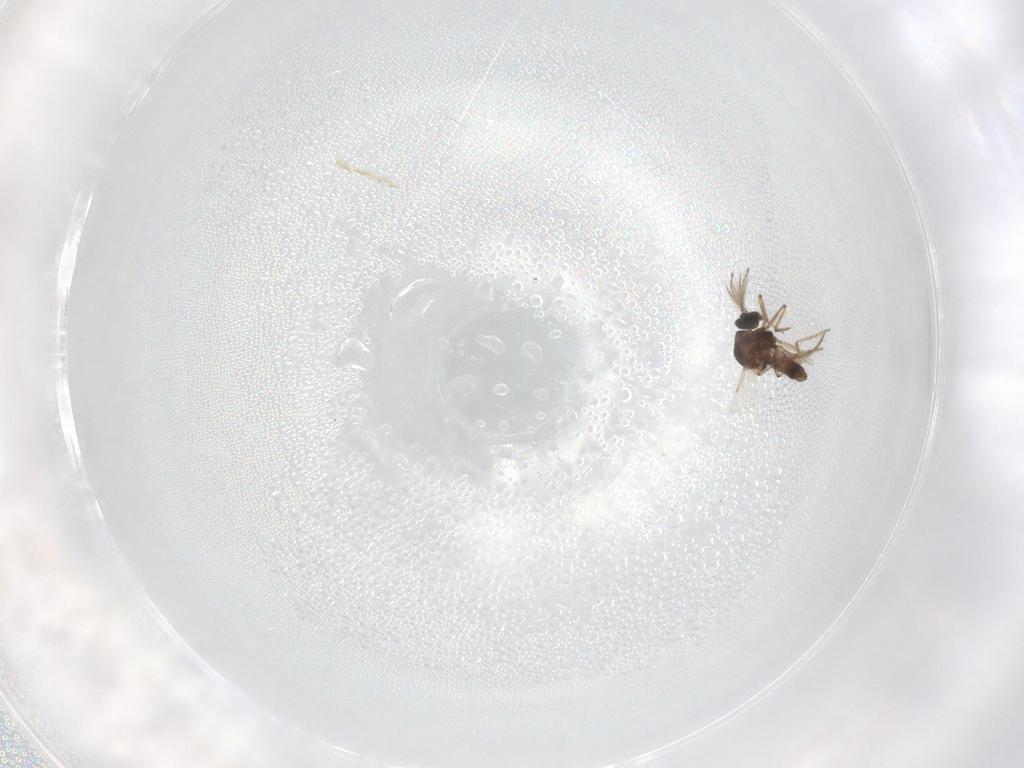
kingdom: Animalia
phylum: Arthropoda
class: Insecta
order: Diptera
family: Ceratopogonidae
